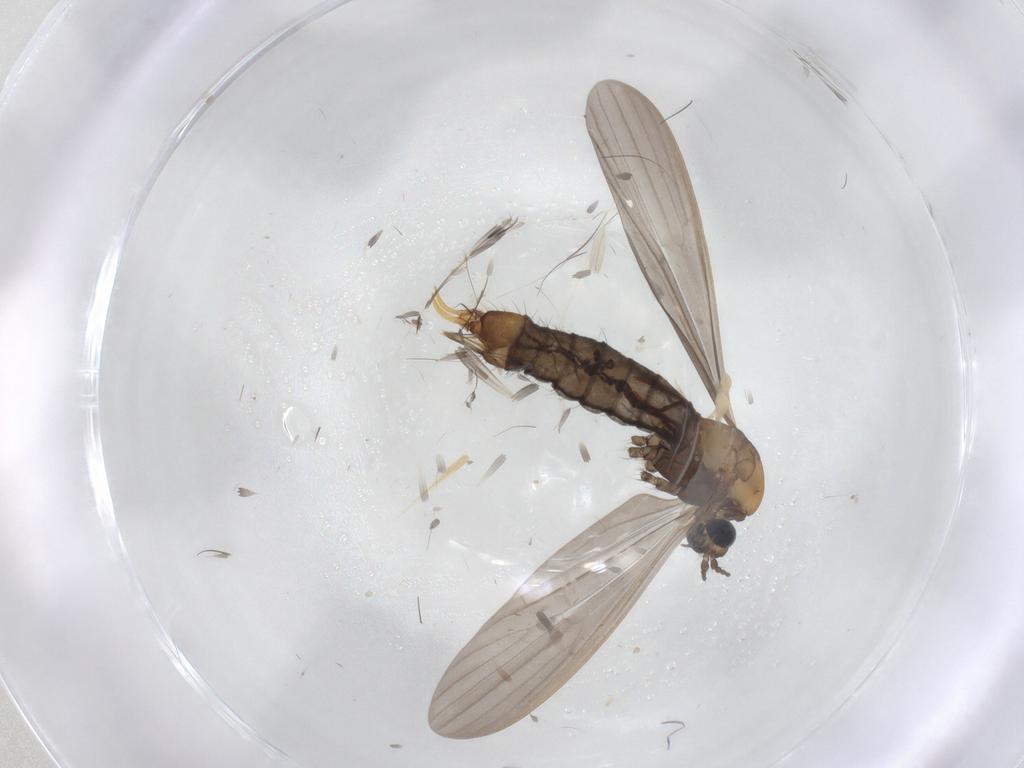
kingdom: Animalia
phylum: Arthropoda
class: Insecta
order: Diptera
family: Limoniidae
